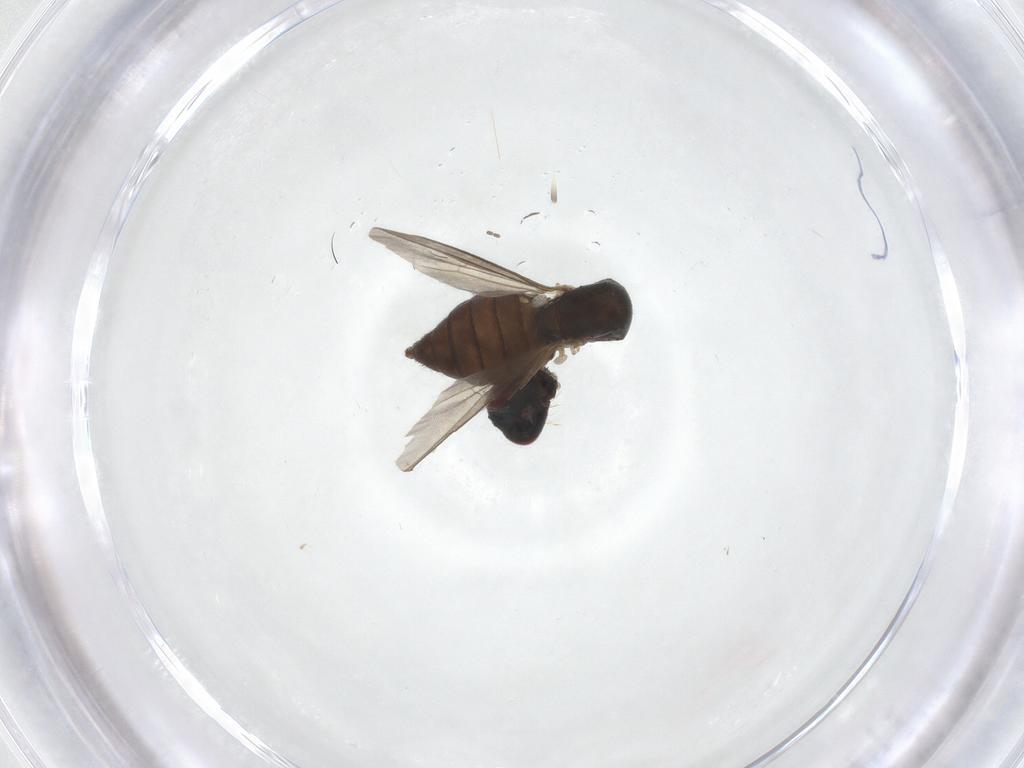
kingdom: Animalia
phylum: Arthropoda
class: Insecta
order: Diptera
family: Dolichopodidae
